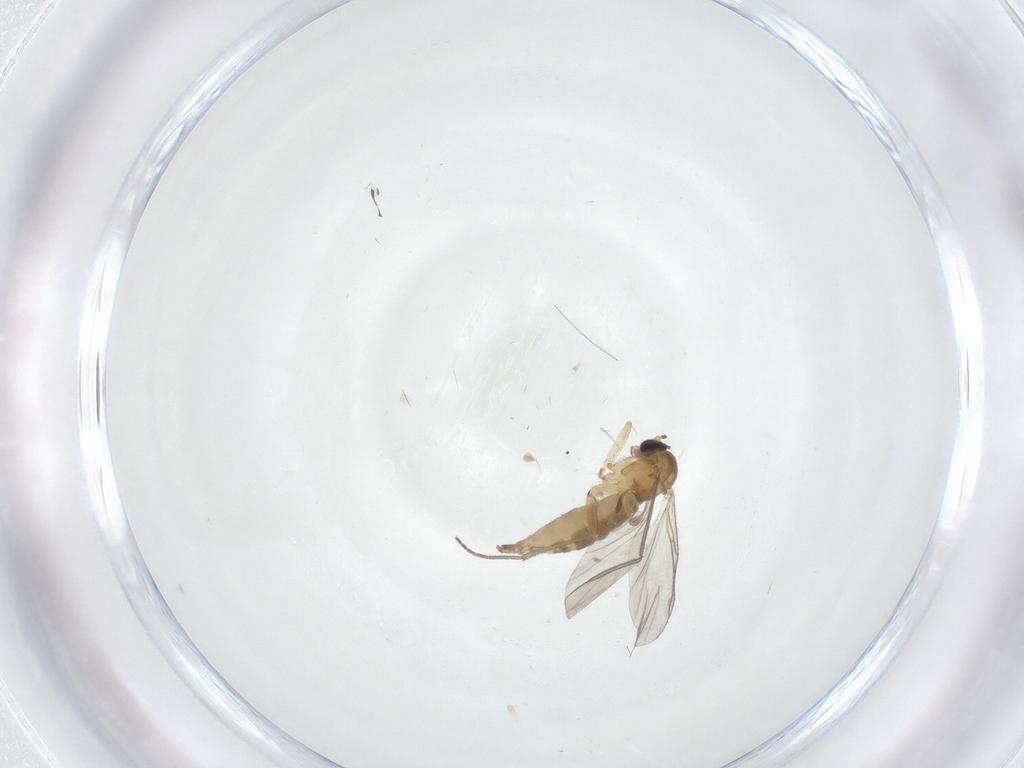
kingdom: Animalia
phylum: Arthropoda
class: Insecta
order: Diptera
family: Sciaridae
